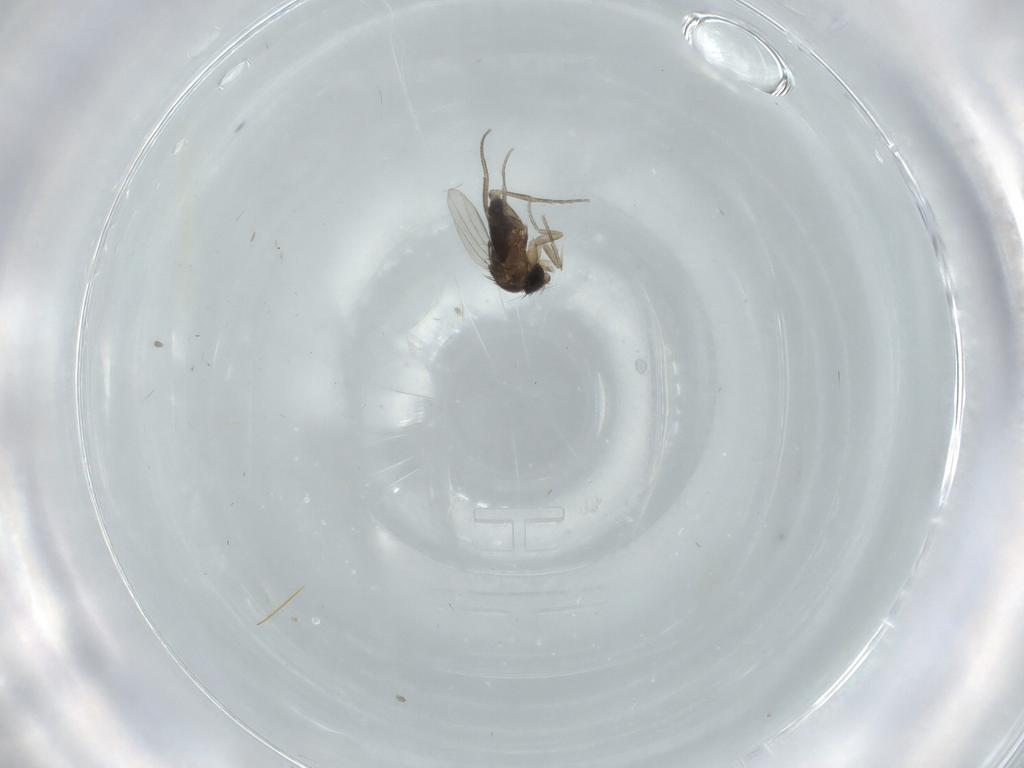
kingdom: Animalia
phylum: Arthropoda
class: Insecta
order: Diptera
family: Phoridae
